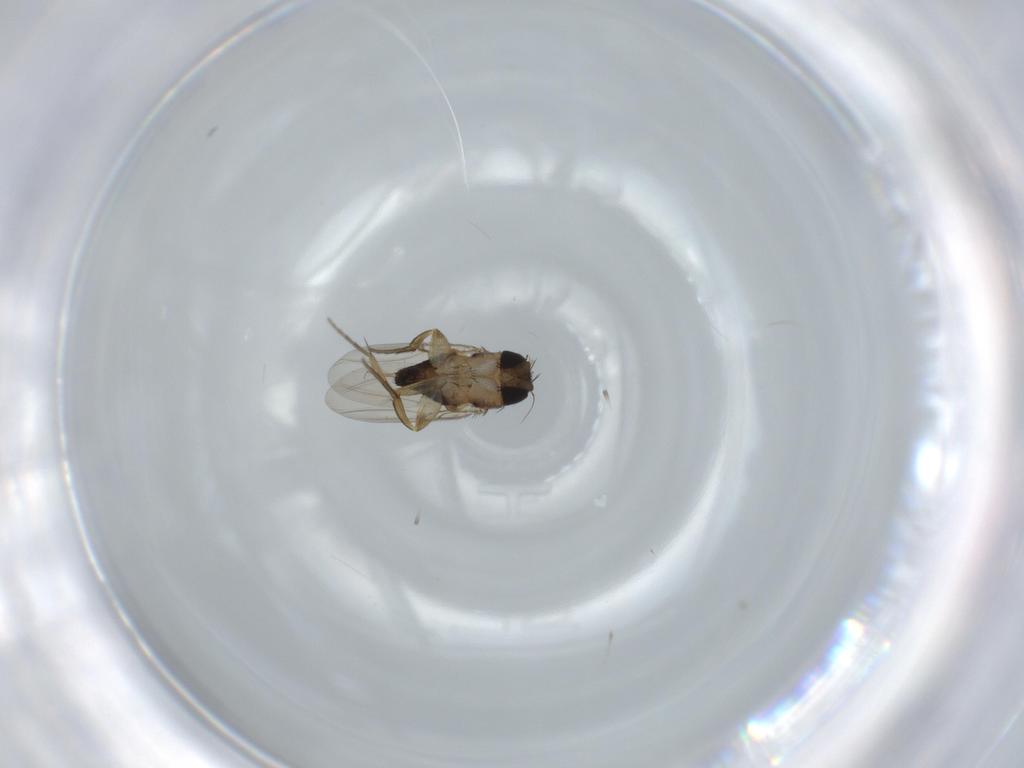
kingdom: Animalia
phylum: Arthropoda
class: Insecta
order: Diptera
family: Phoridae
